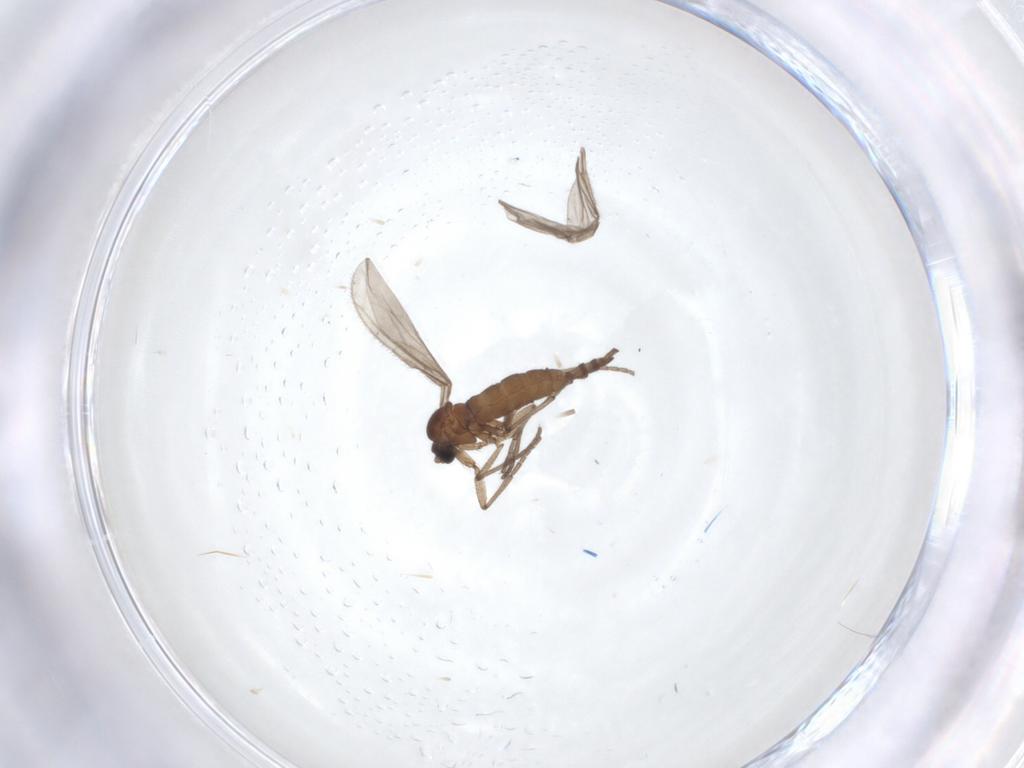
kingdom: Animalia
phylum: Arthropoda
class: Insecta
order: Diptera
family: Sciaridae
